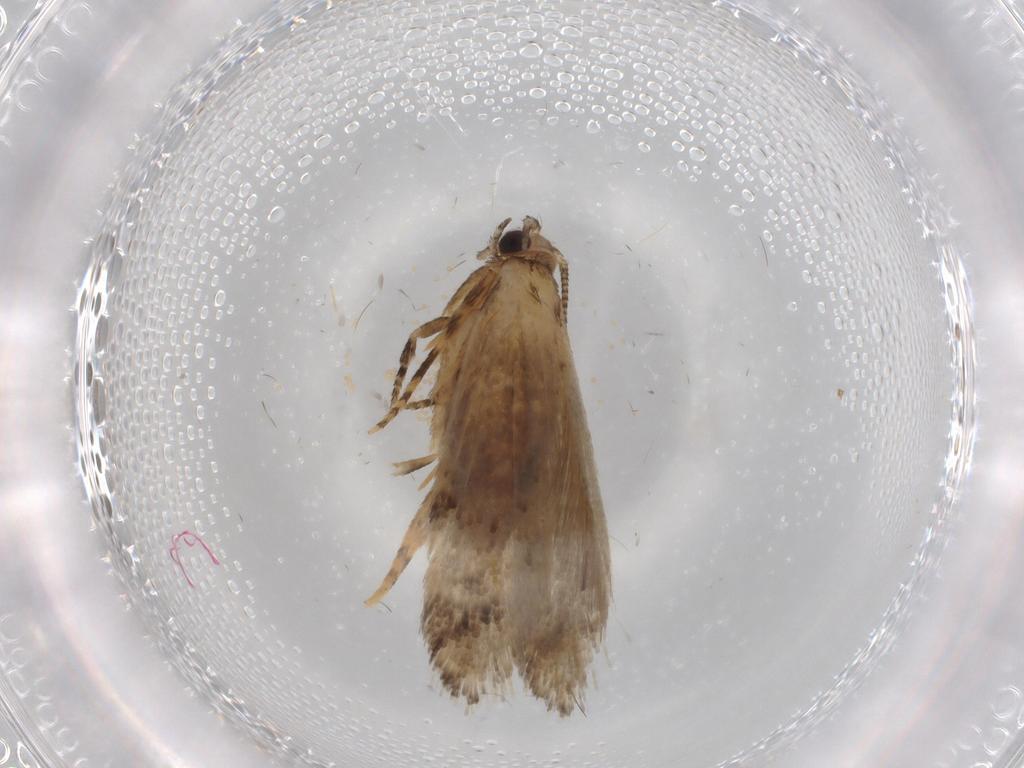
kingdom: Animalia
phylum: Arthropoda
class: Insecta
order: Lepidoptera
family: Tineidae
